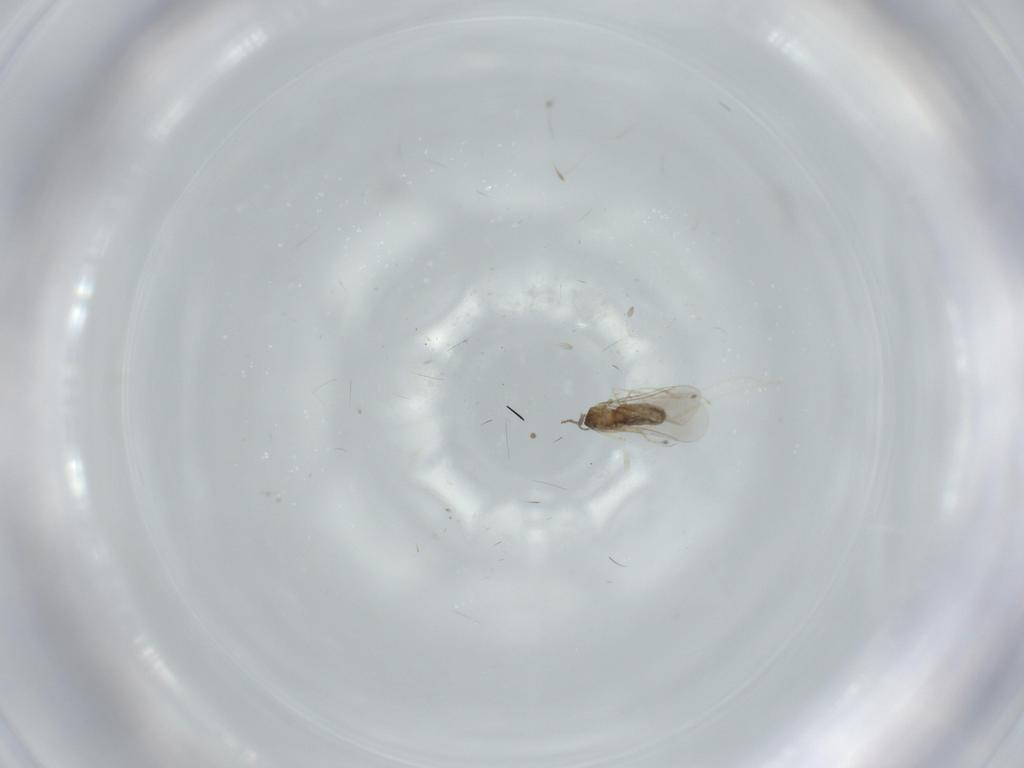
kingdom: Animalia
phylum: Arthropoda
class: Insecta
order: Diptera
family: Cecidomyiidae
